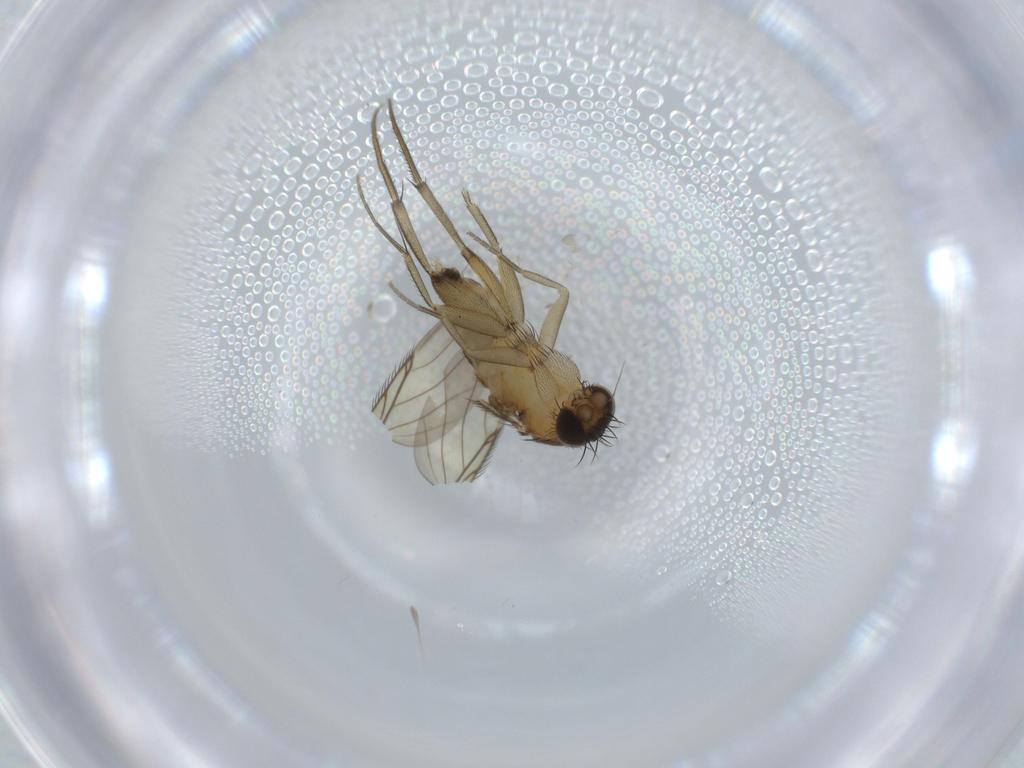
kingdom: Animalia
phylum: Arthropoda
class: Insecta
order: Diptera
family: Phoridae
